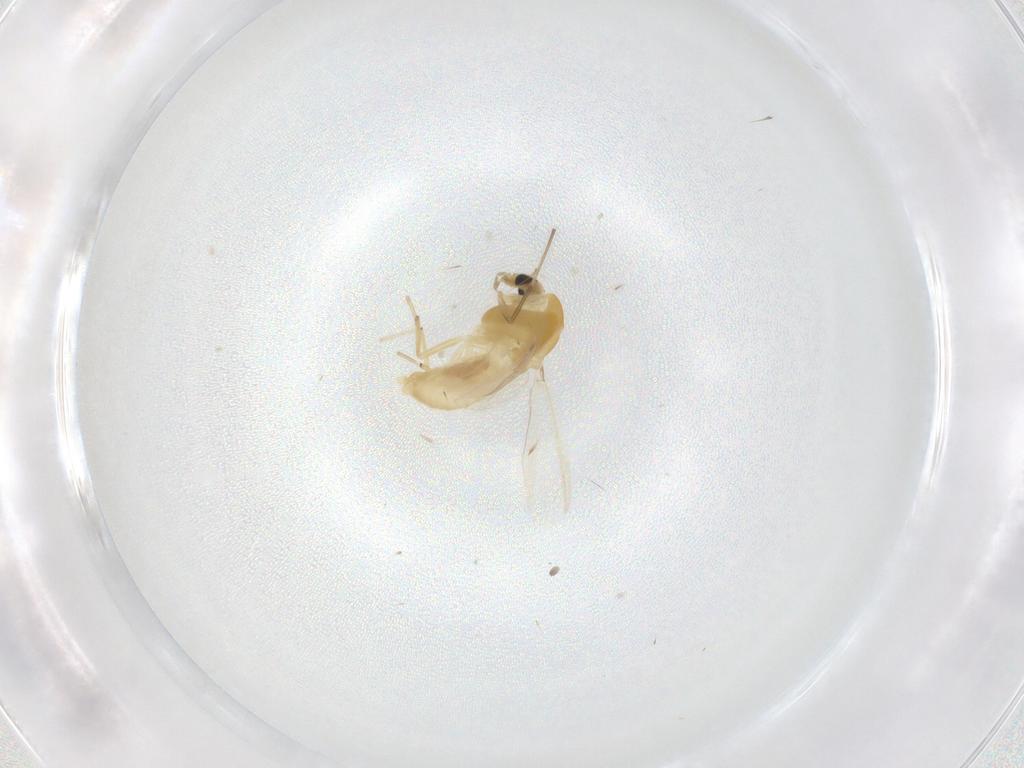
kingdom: Animalia
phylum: Arthropoda
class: Insecta
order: Diptera
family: Chironomidae
